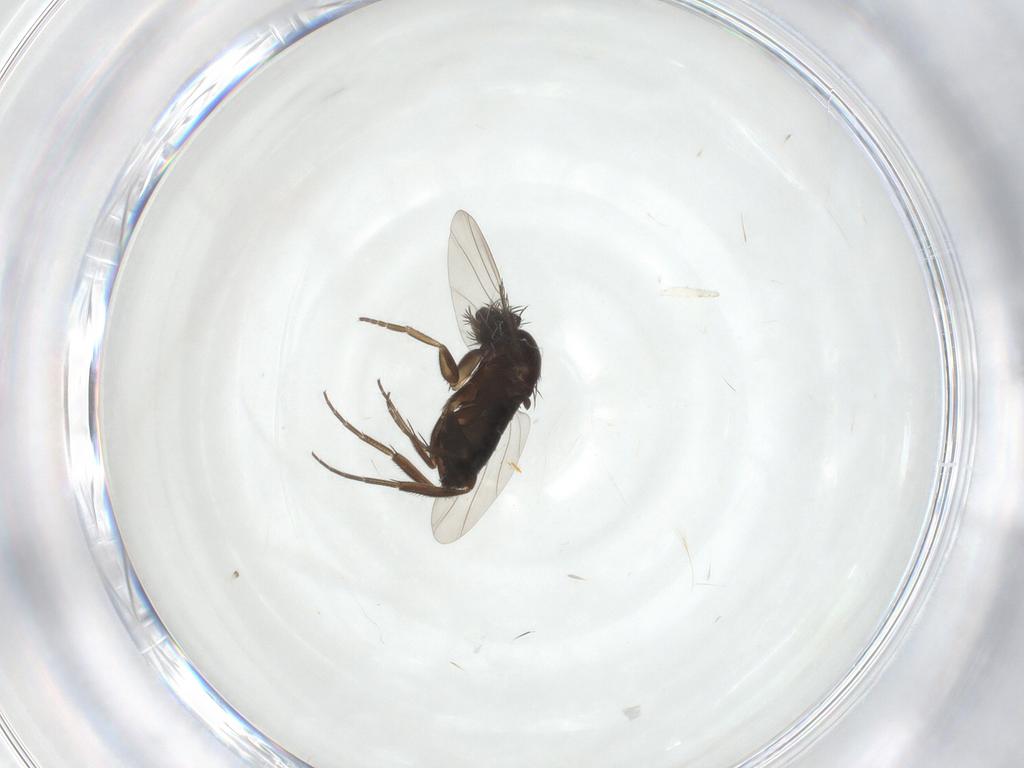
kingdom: Animalia
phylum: Arthropoda
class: Insecta
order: Diptera
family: Phoridae
